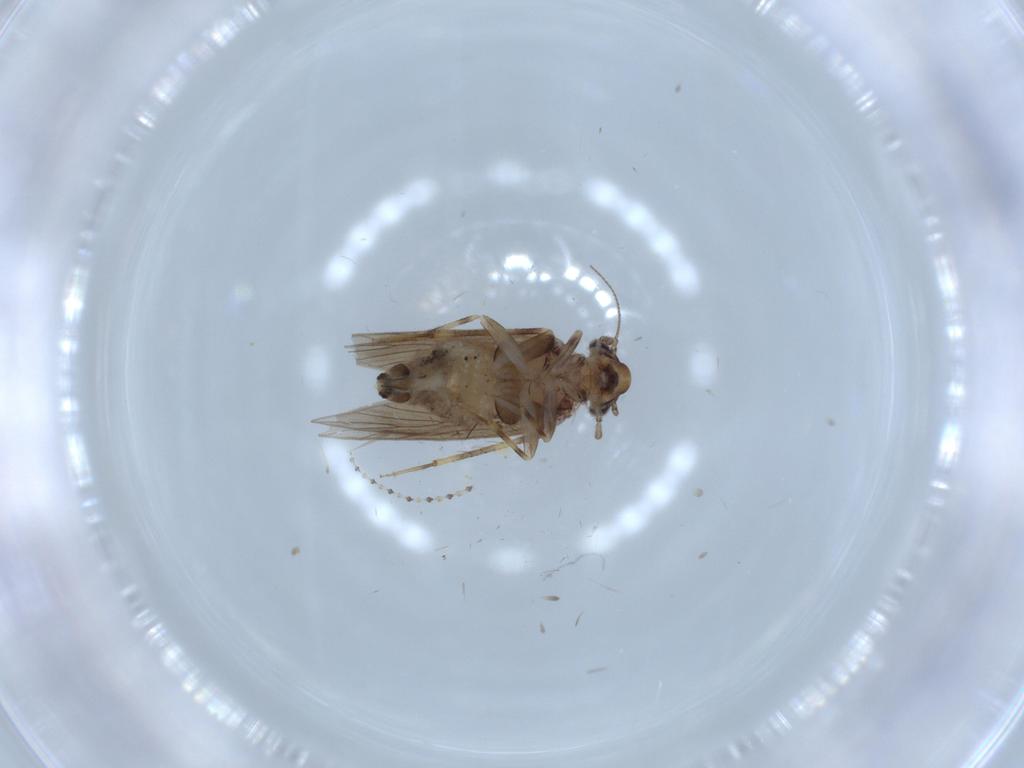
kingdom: Animalia
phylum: Arthropoda
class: Insecta
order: Psocodea
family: Lepidopsocidae
